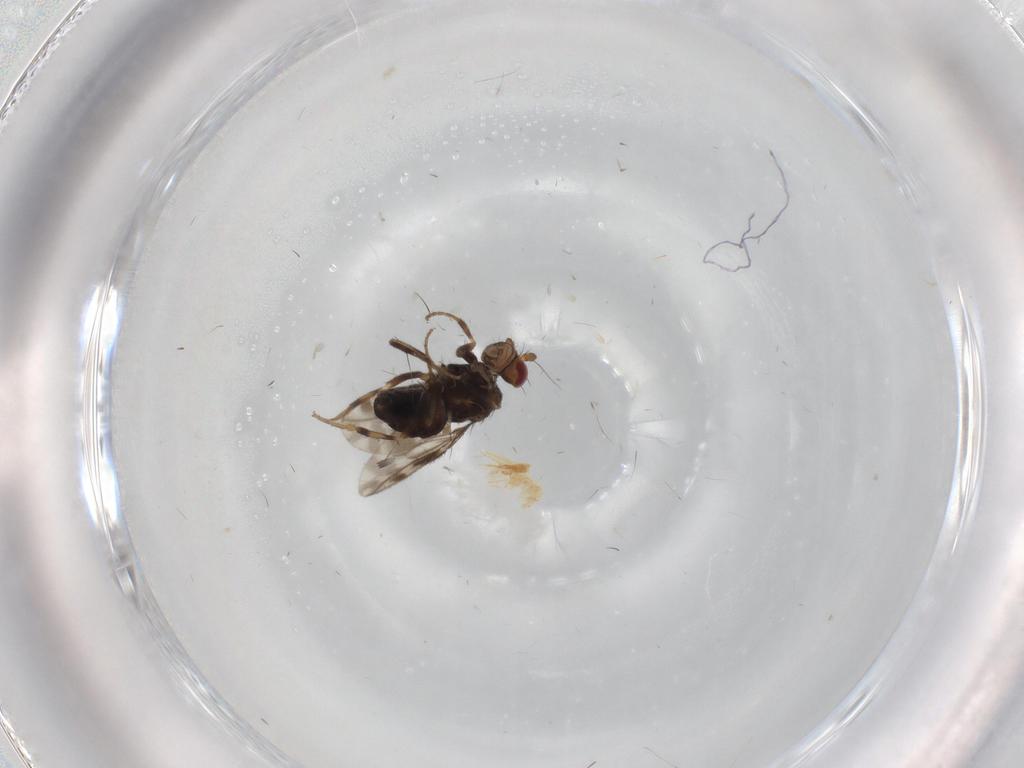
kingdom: Animalia
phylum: Arthropoda
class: Insecta
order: Diptera
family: Sphaeroceridae
